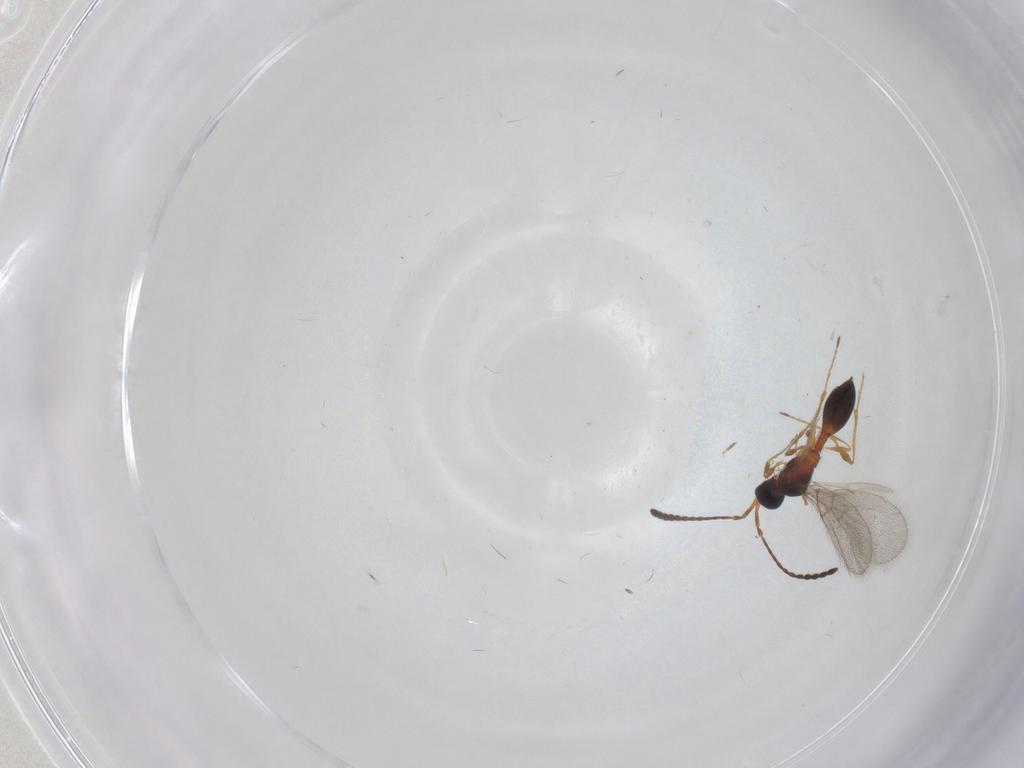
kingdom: Animalia
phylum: Arthropoda
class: Insecta
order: Hymenoptera
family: Diapriidae
